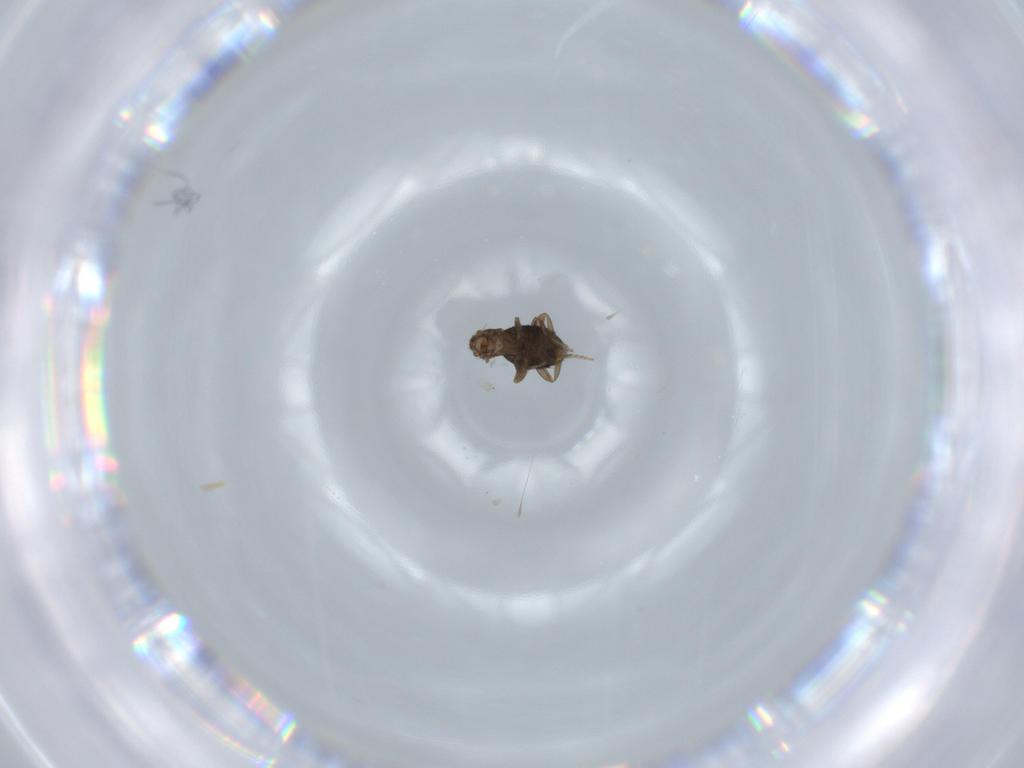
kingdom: Animalia
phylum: Arthropoda
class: Insecta
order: Diptera
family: Phoridae
